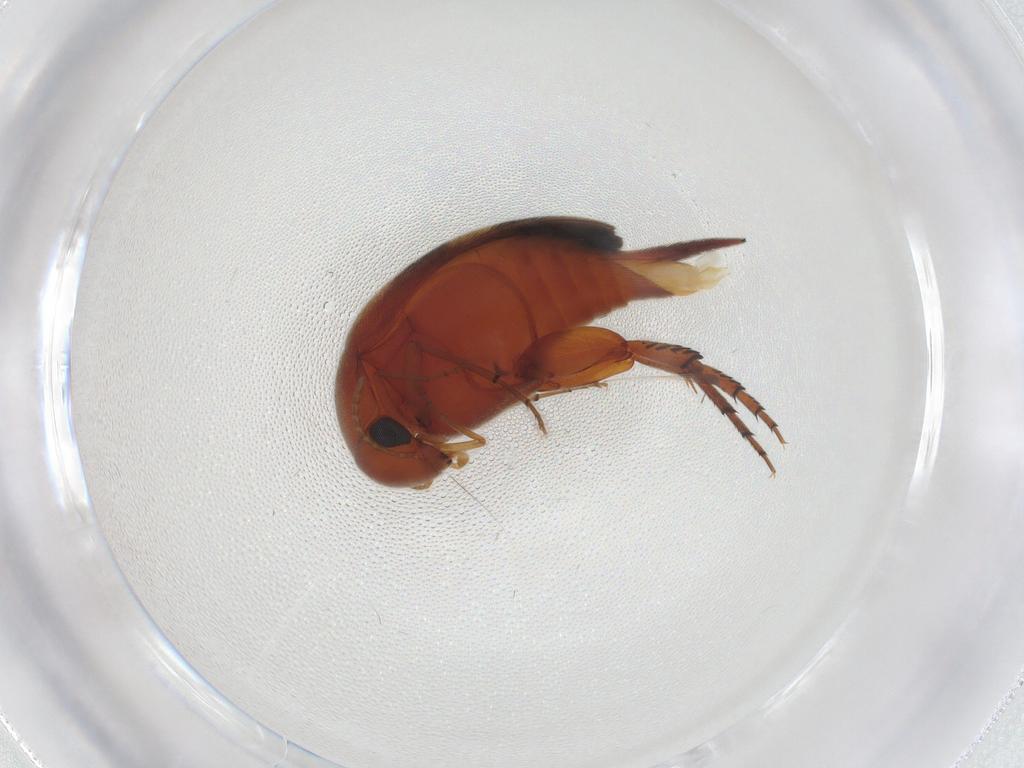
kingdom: Animalia
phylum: Arthropoda
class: Insecta
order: Coleoptera
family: Mordellidae
